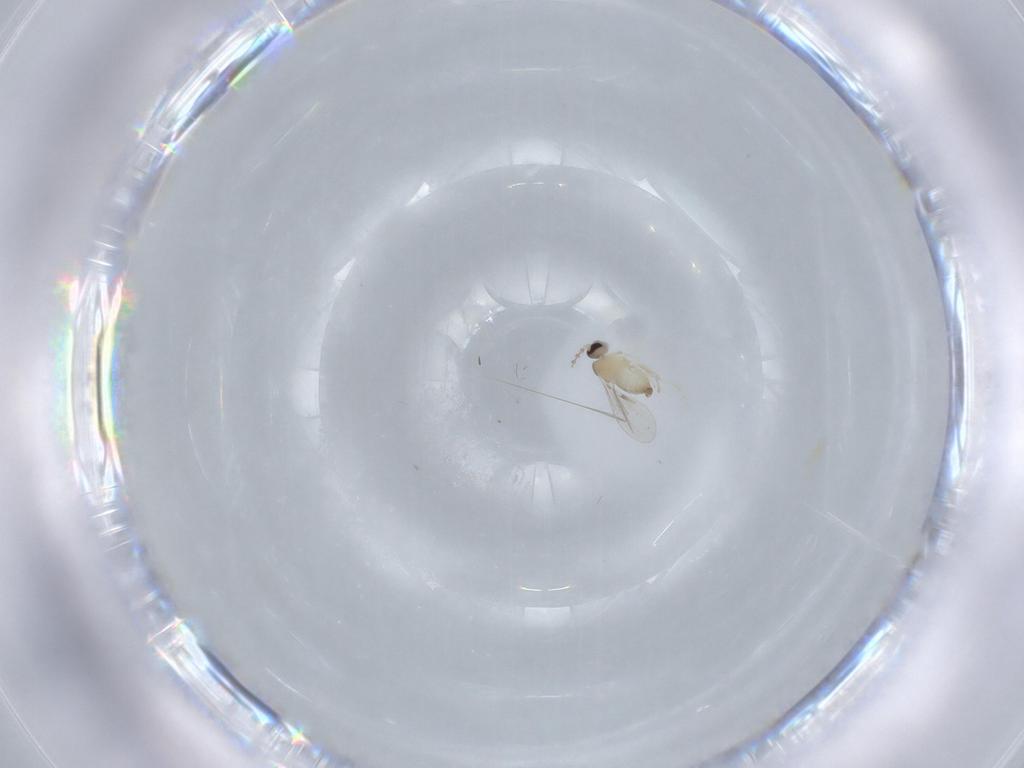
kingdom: Animalia
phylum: Arthropoda
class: Insecta
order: Diptera
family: Cecidomyiidae
